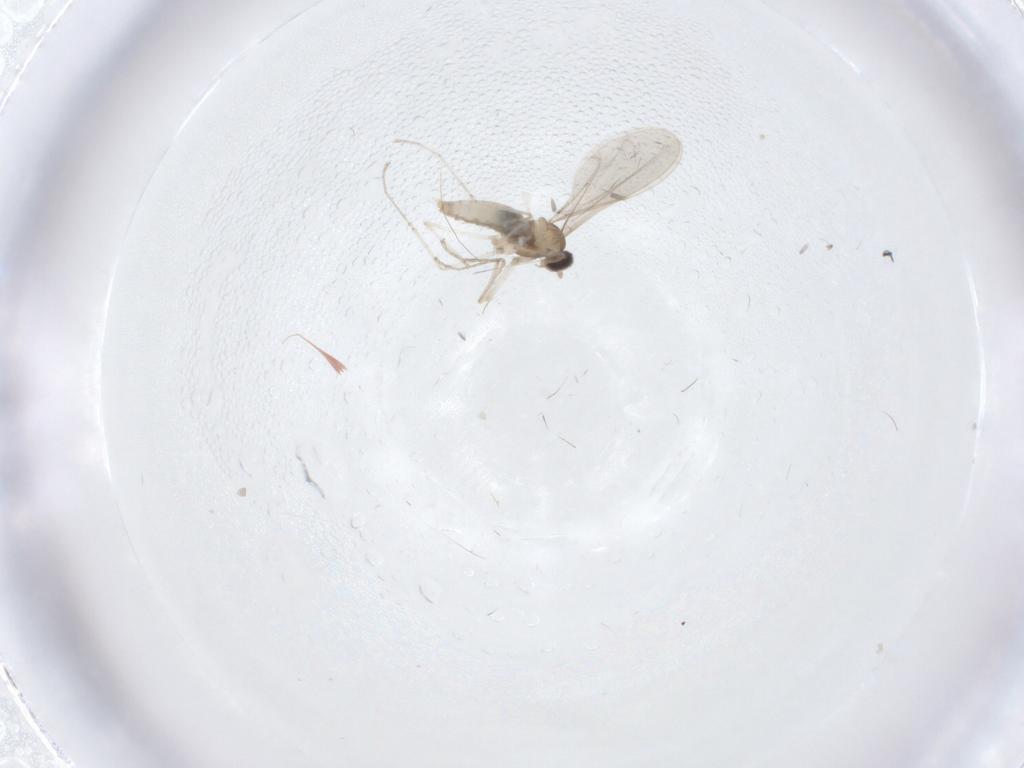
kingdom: Animalia
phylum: Arthropoda
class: Insecta
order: Diptera
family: Cecidomyiidae
